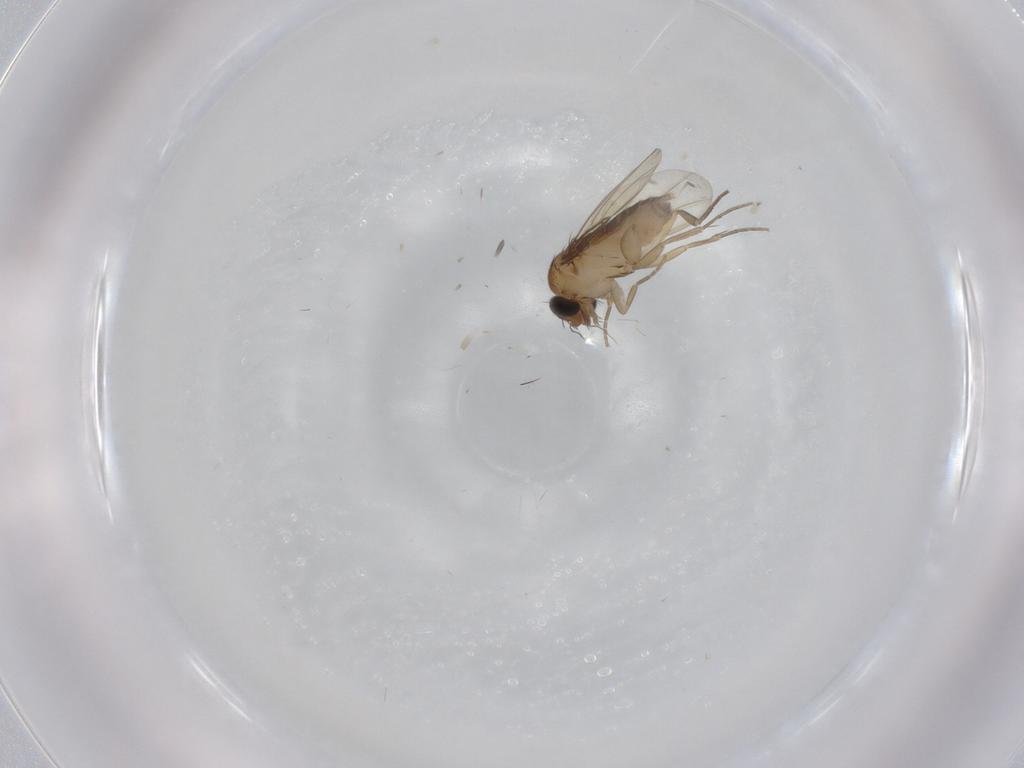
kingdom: Animalia
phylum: Arthropoda
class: Insecta
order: Diptera
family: Phoridae
